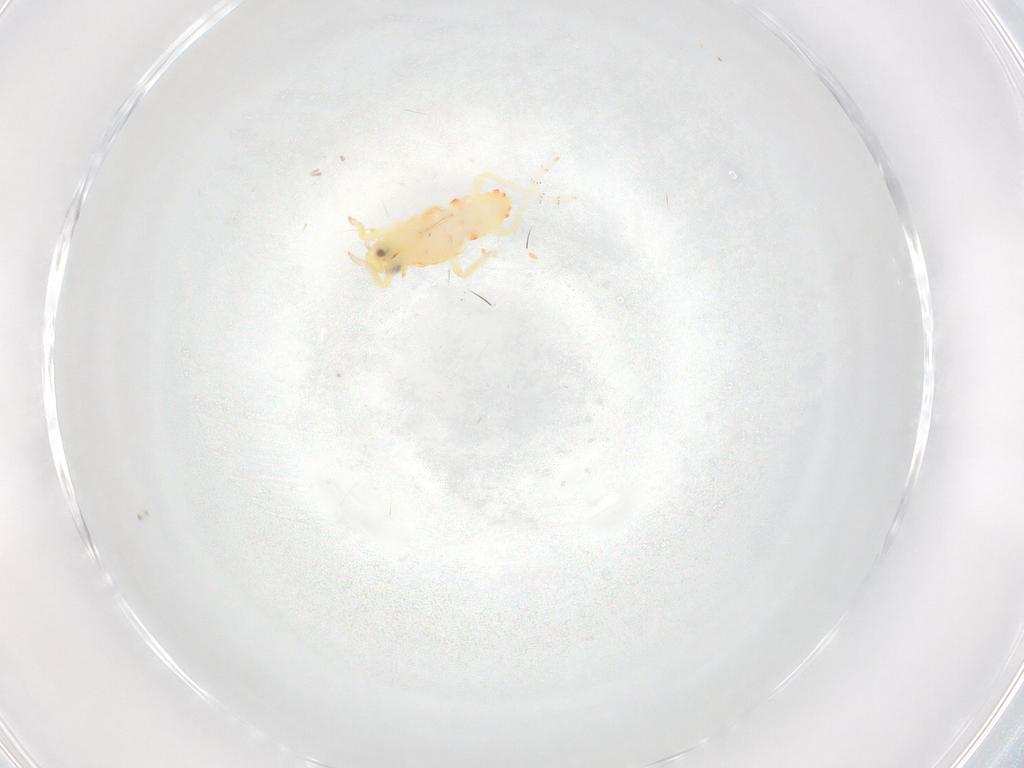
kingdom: Animalia
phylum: Arthropoda
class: Insecta
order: Hemiptera
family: Tropiduchidae
